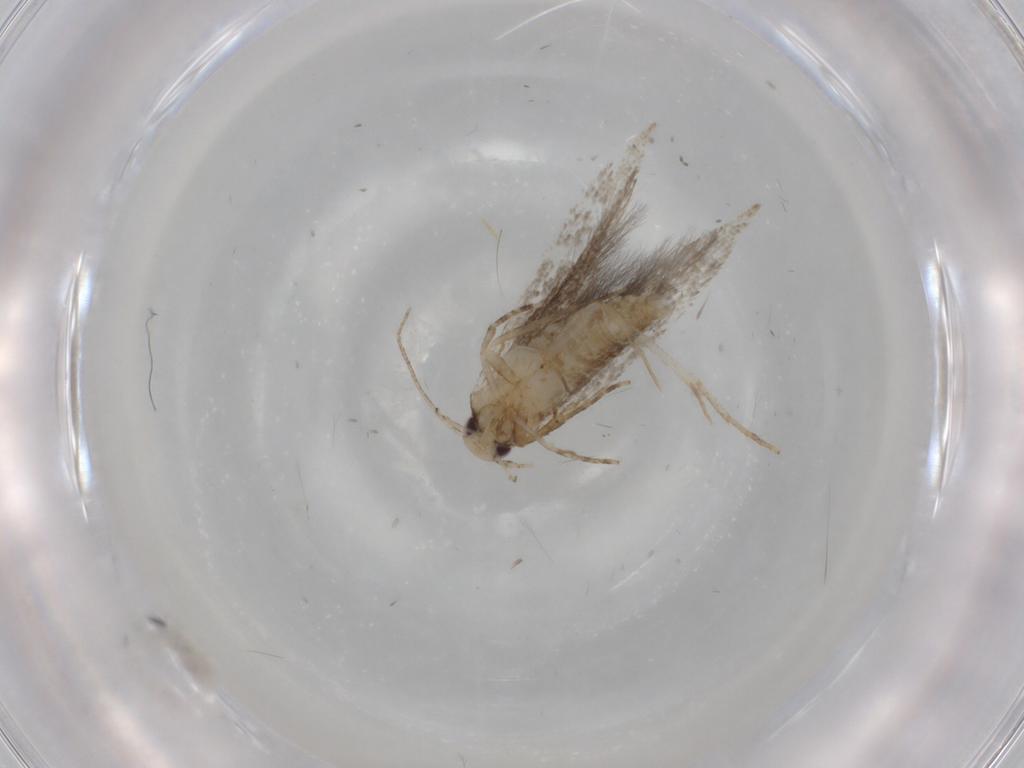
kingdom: Animalia
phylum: Arthropoda
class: Insecta
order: Lepidoptera
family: Cosmopterigidae
